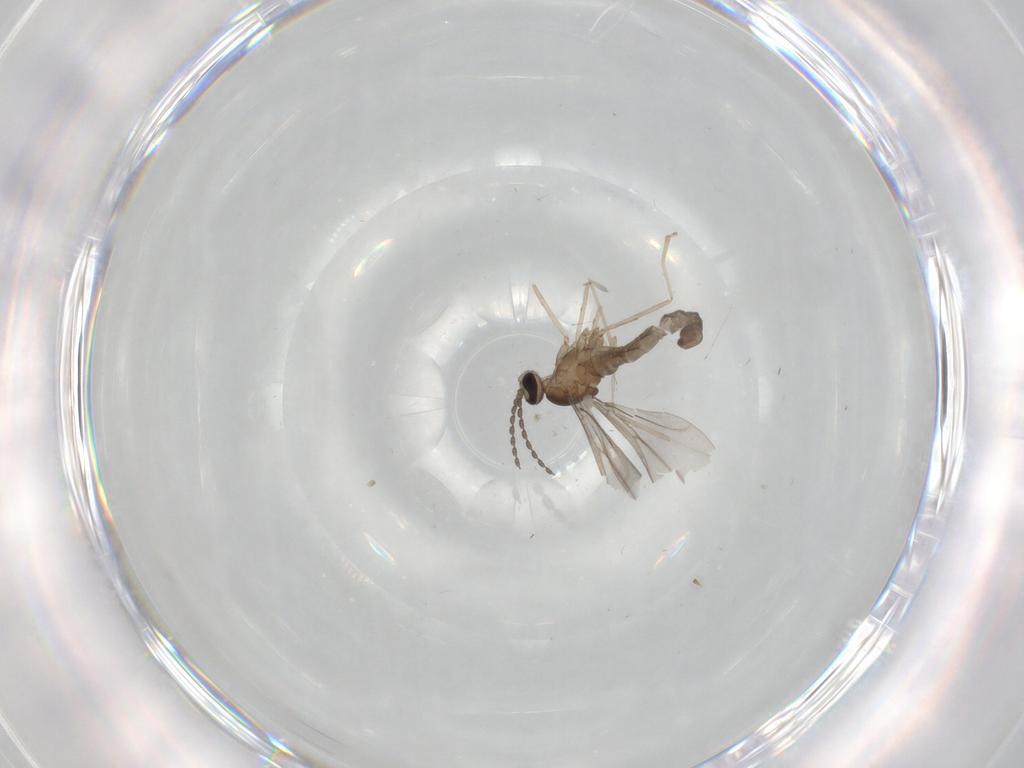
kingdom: Animalia
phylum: Arthropoda
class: Insecta
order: Diptera
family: Cecidomyiidae
